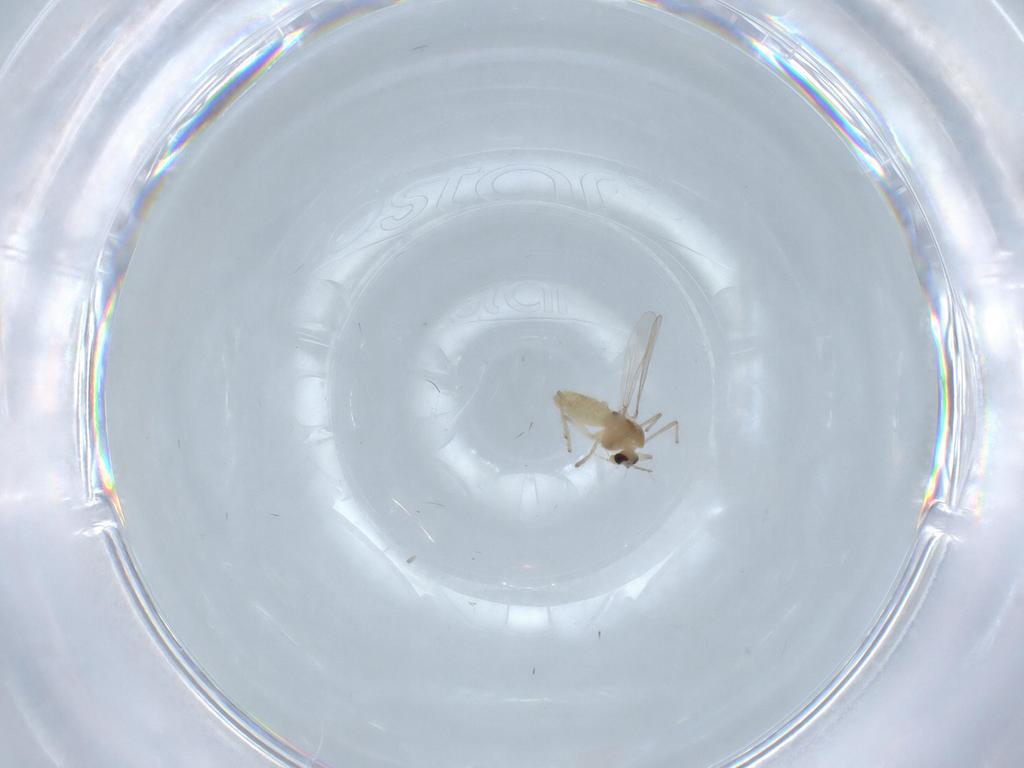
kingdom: Animalia
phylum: Arthropoda
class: Insecta
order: Diptera
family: Chironomidae
